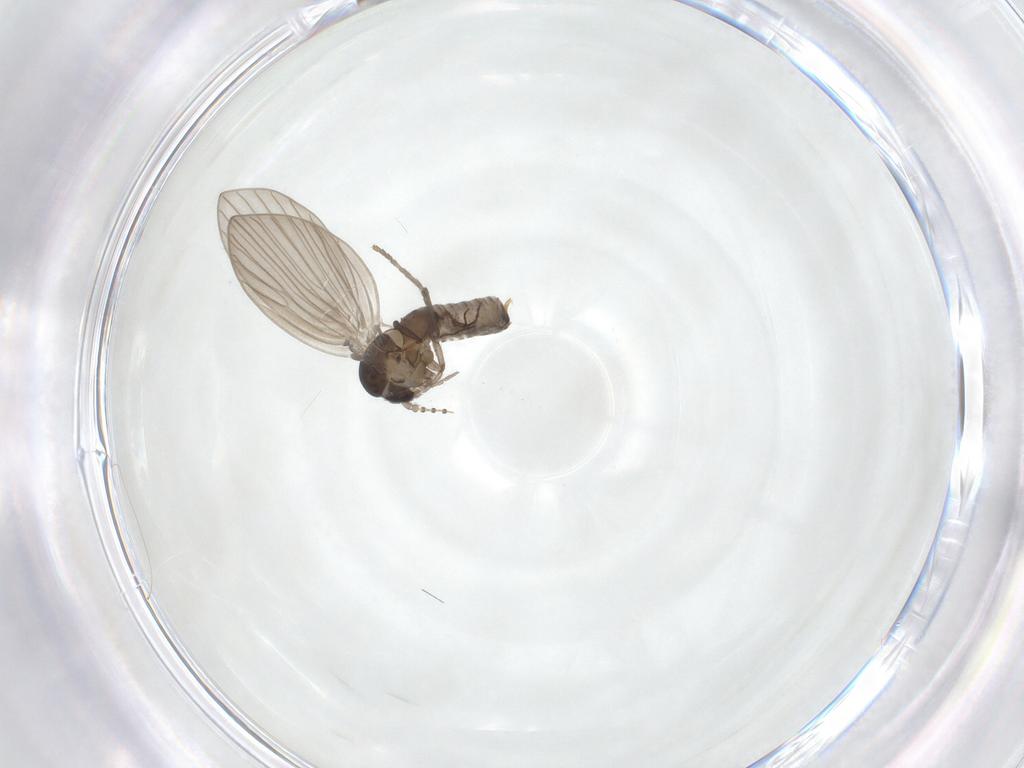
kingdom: Animalia
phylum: Arthropoda
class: Insecta
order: Diptera
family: Psychodidae
